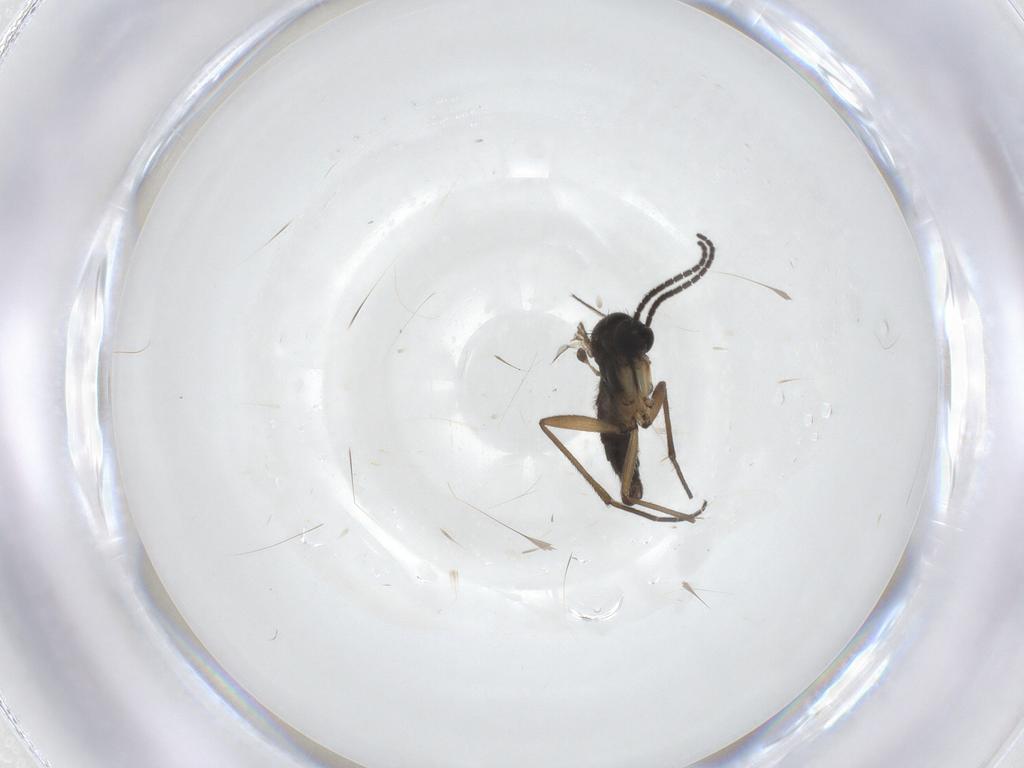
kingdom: Animalia
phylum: Arthropoda
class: Insecta
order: Diptera
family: Sciaridae
